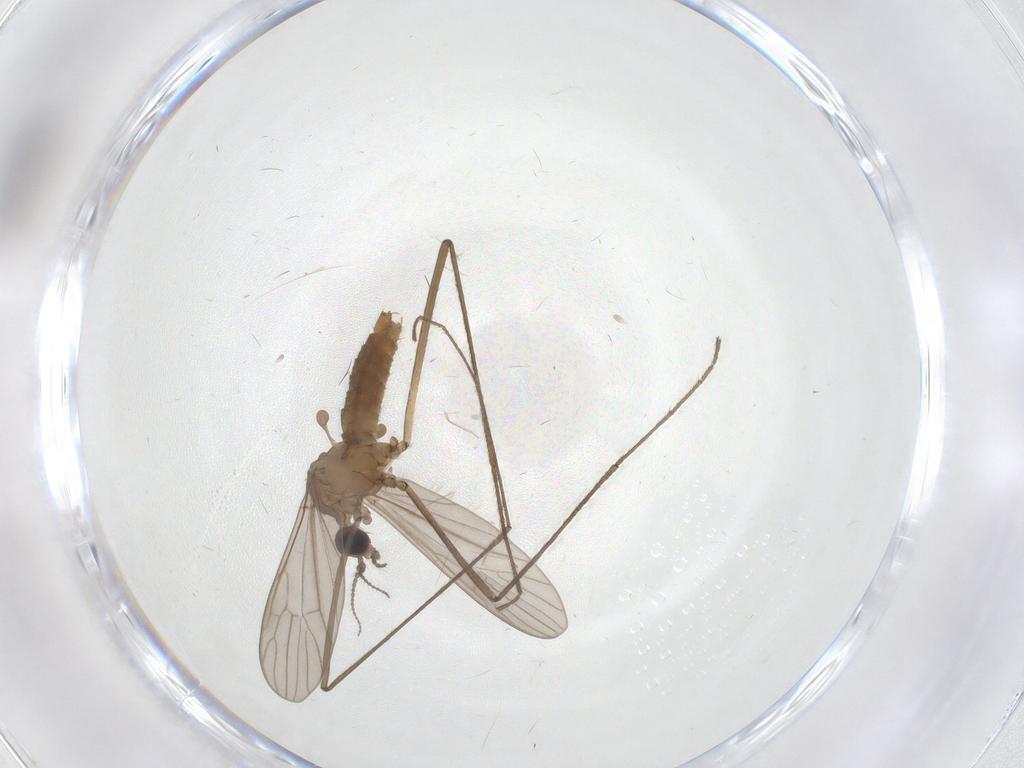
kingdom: Animalia
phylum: Arthropoda
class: Insecta
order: Diptera
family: Limoniidae
